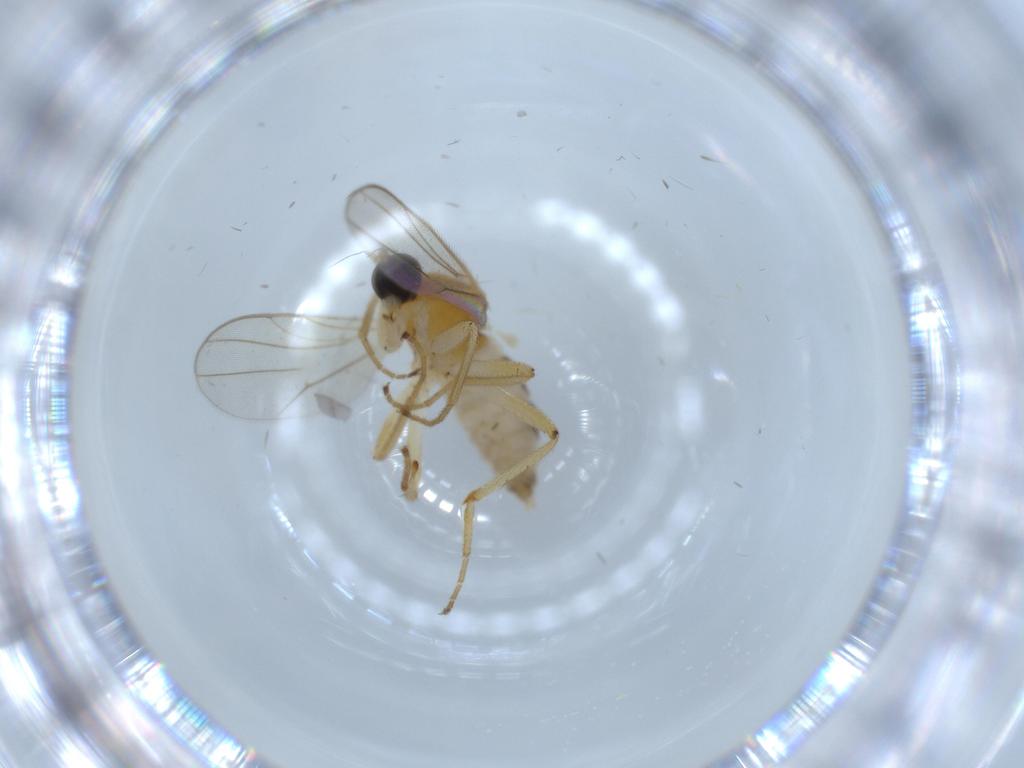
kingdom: Animalia
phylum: Arthropoda
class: Insecta
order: Diptera
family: Hybotidae
